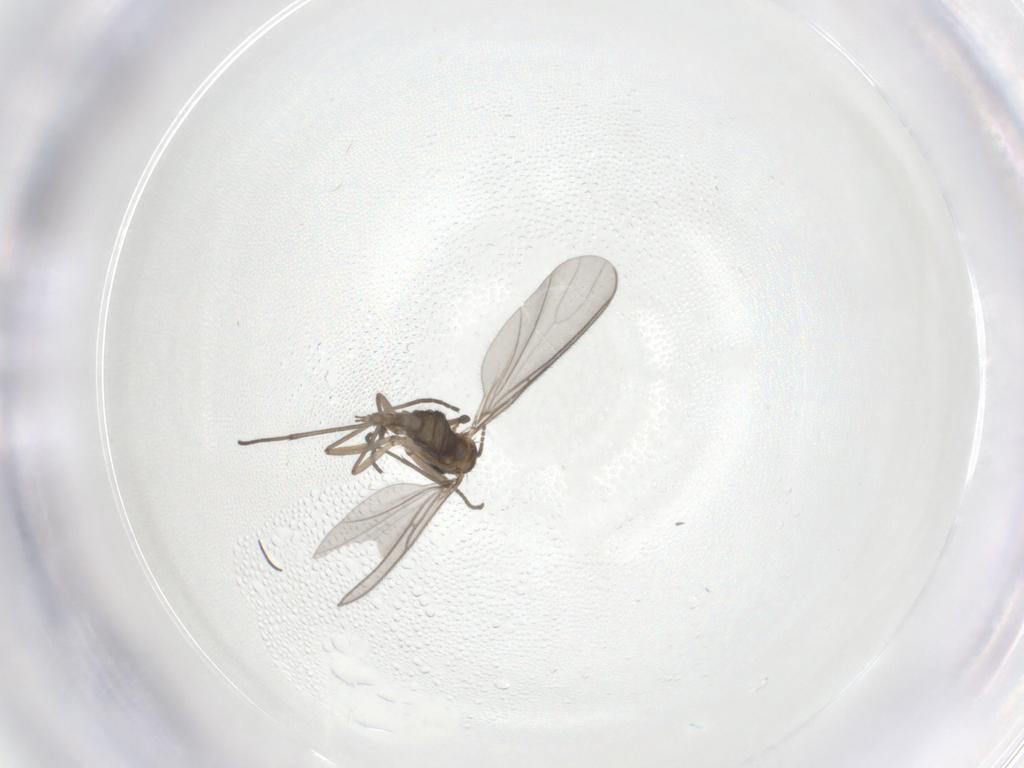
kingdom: Animalia
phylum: Arthropoda
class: Insecta
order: Diptera
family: Sciaridae
